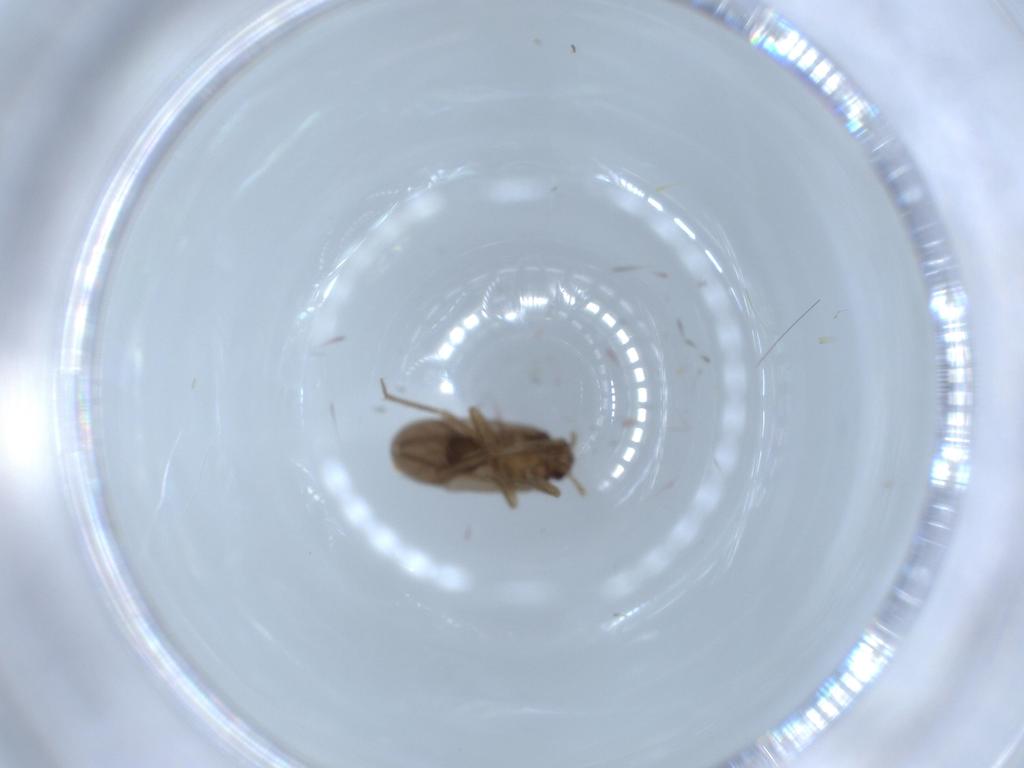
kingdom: Animalia
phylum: Arthropoda
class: Insecta
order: Hemiptera
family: Ceratocombidae
